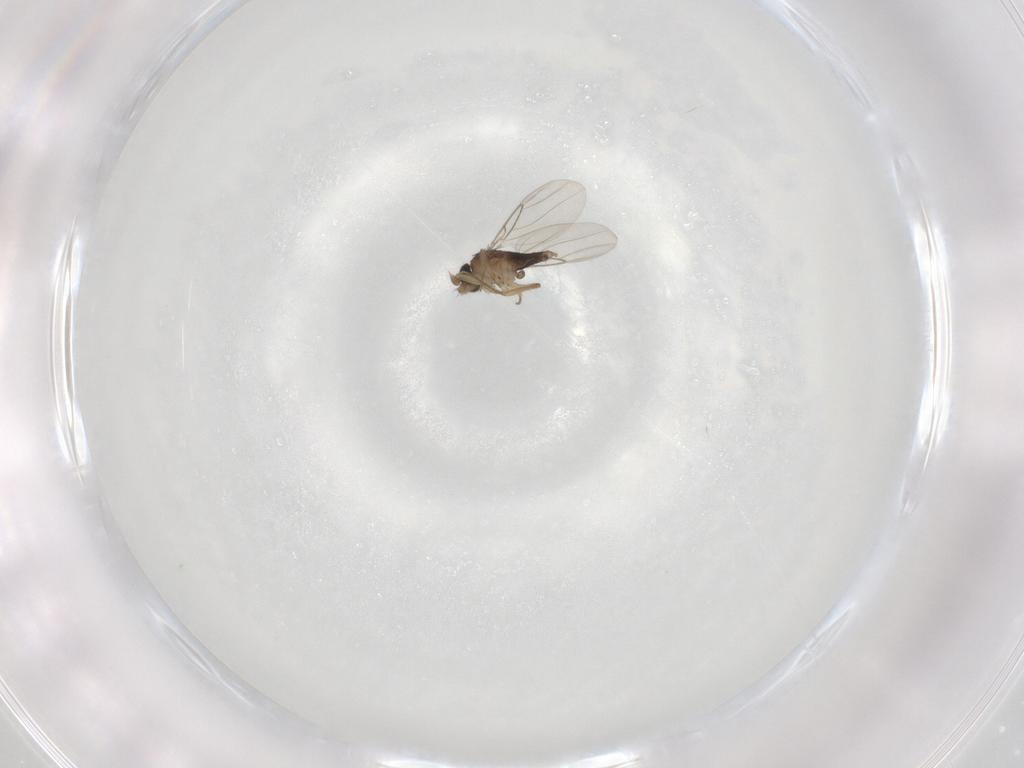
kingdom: Animalia
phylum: Arthropoda
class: Insecta
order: Diptera
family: Phoridae
